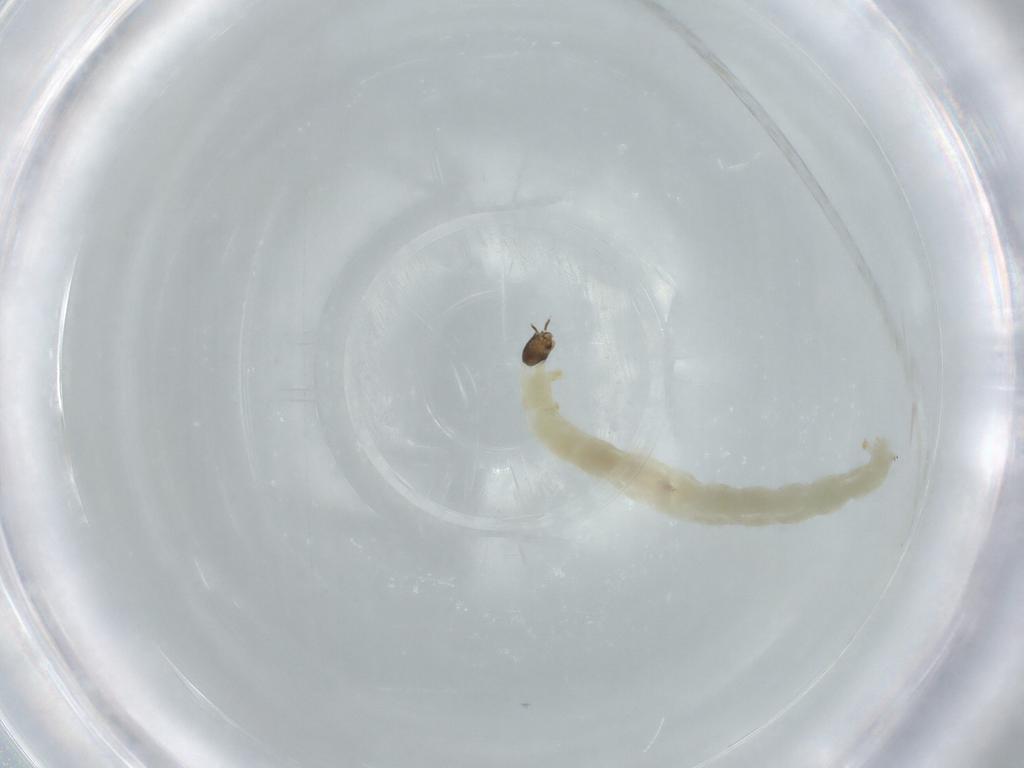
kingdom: Animalia
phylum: Arthropoda
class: Insecta
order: Diptera
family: Chironomidae
